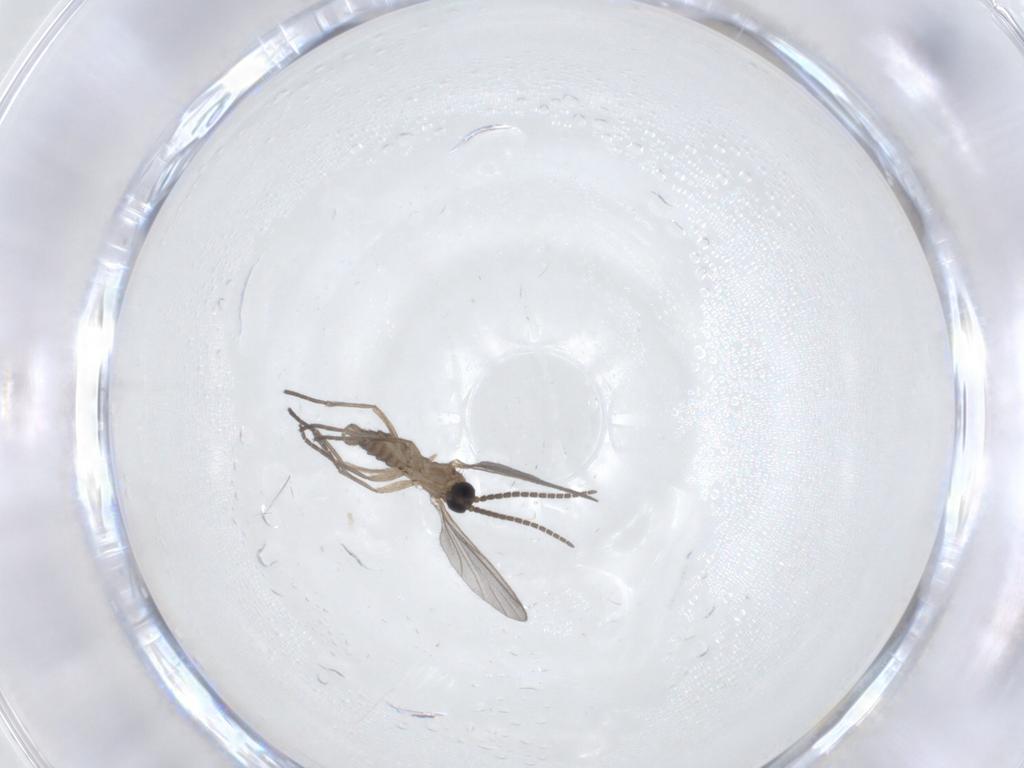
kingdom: Animalia
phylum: Arthropoda
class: Insecta
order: Diptera
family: Sciaridae
